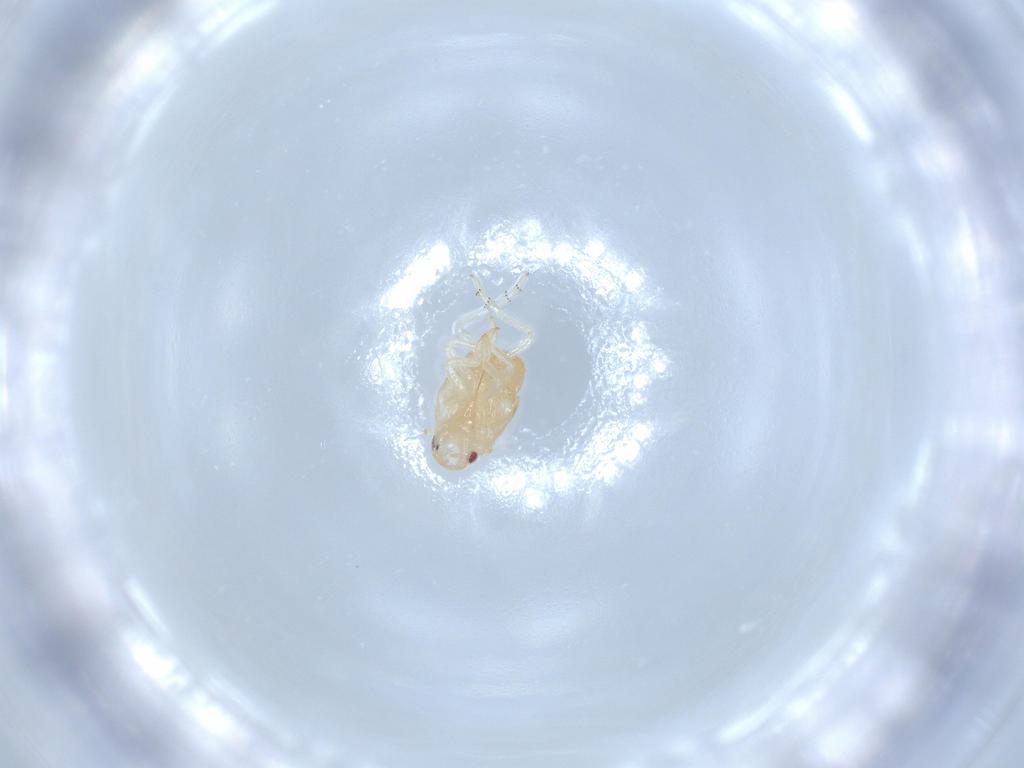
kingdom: Animalia
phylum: Arthropoda
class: Insecta
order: Hemiptera
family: Flatidae
